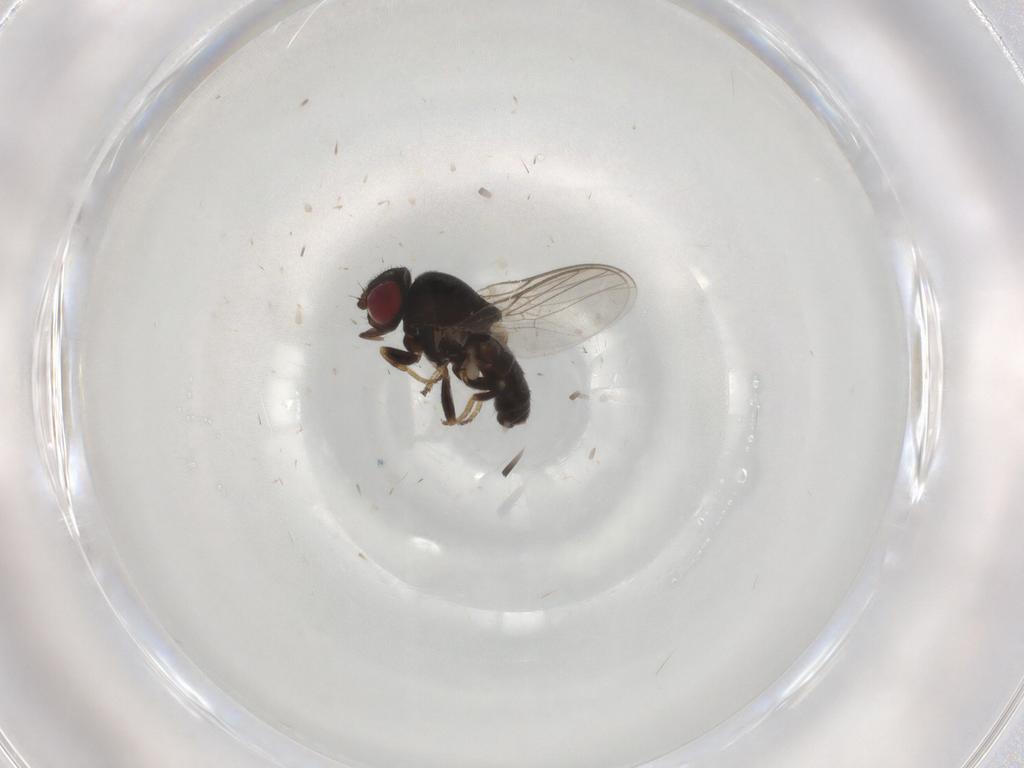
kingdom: Animalia
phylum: Arthropoda
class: Insecta
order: Diptera
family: Chloropidae
